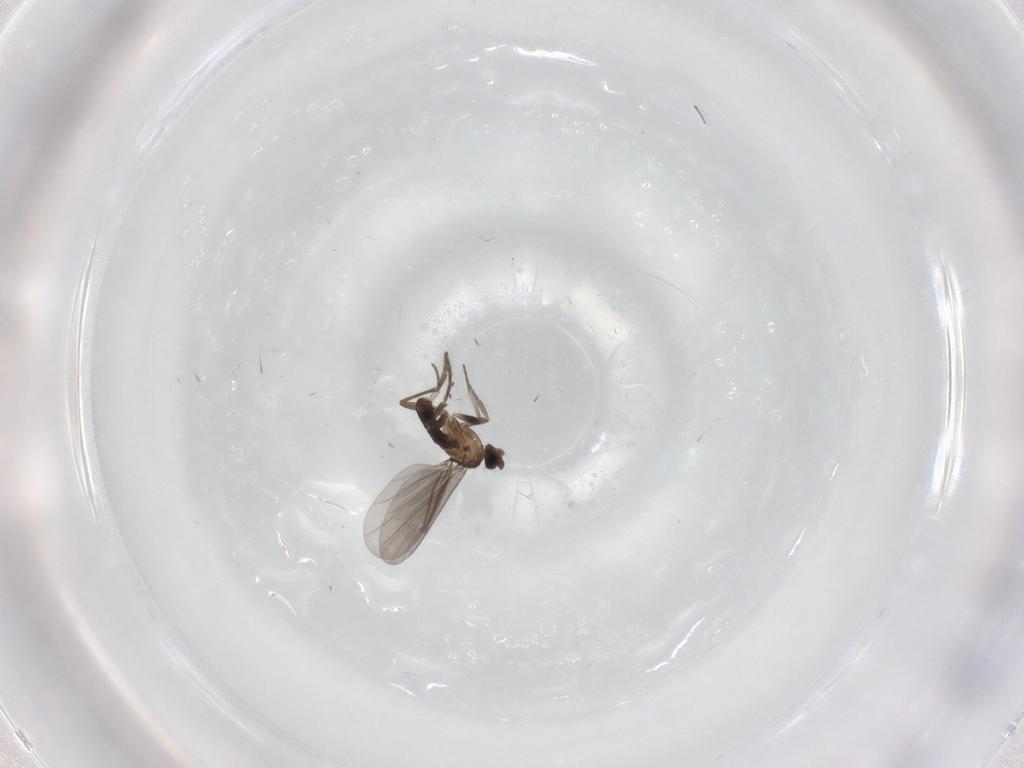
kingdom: Animalia
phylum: Arthropoda
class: Insecta
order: Diptera
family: Phoridae
